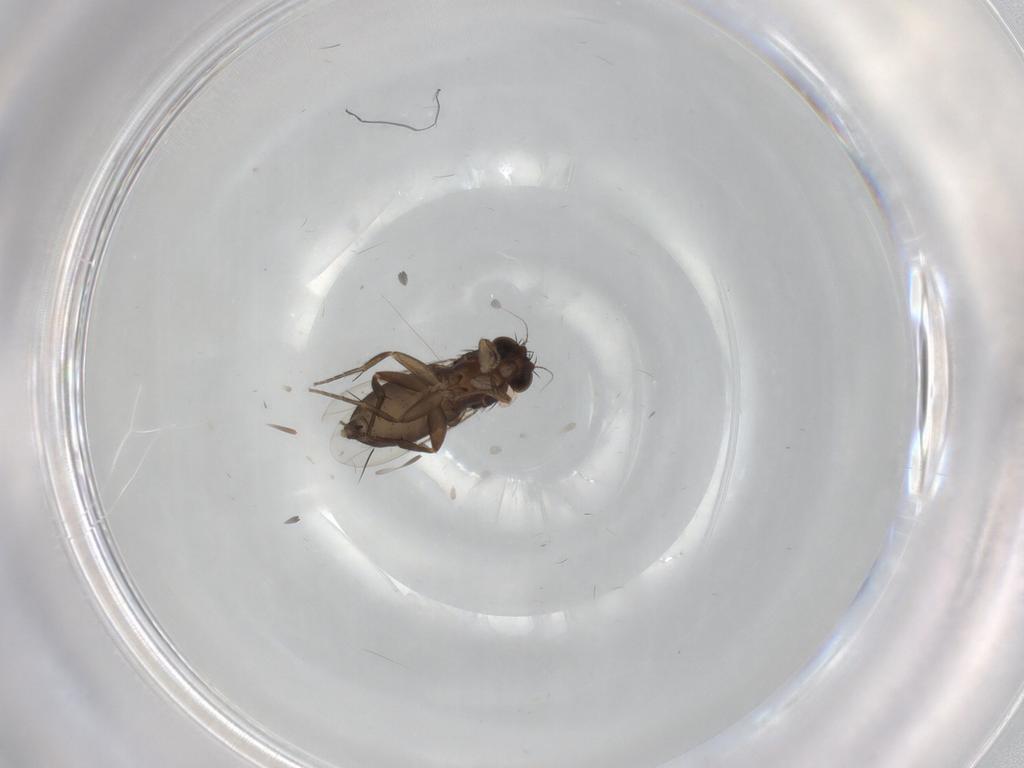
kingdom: Animalia
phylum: Arthropoda
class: Insecta
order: Diptera
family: Phoridae
